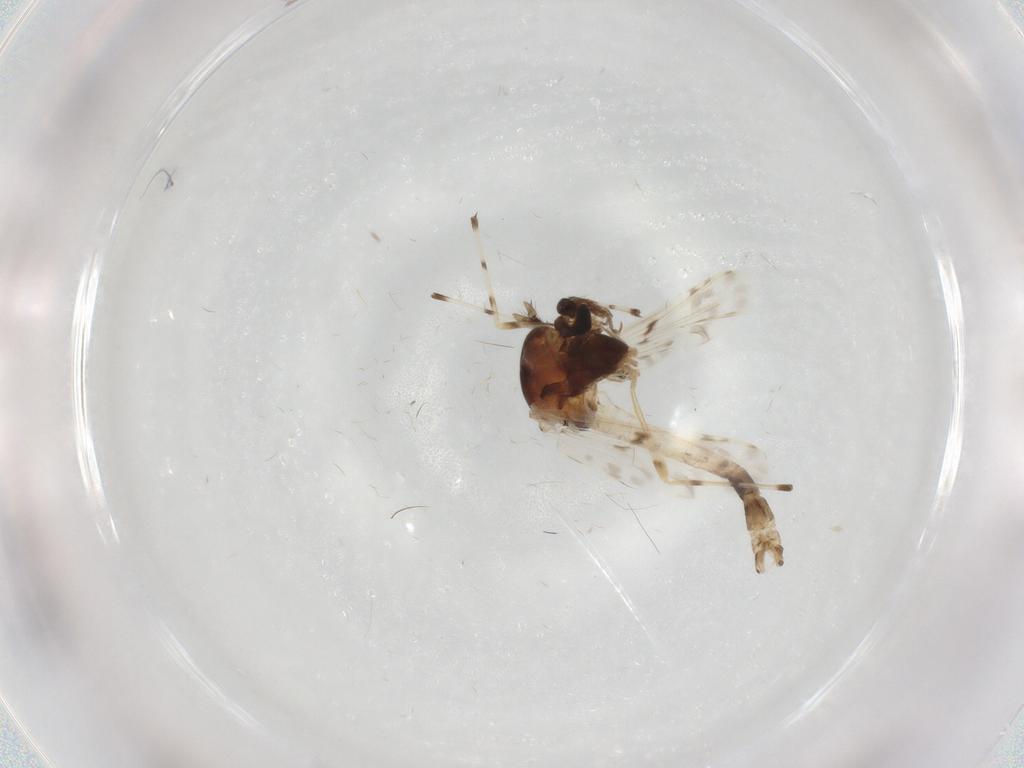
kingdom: Animalia
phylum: Arthropoda
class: Insecta
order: Diptera
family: Chironomidae
